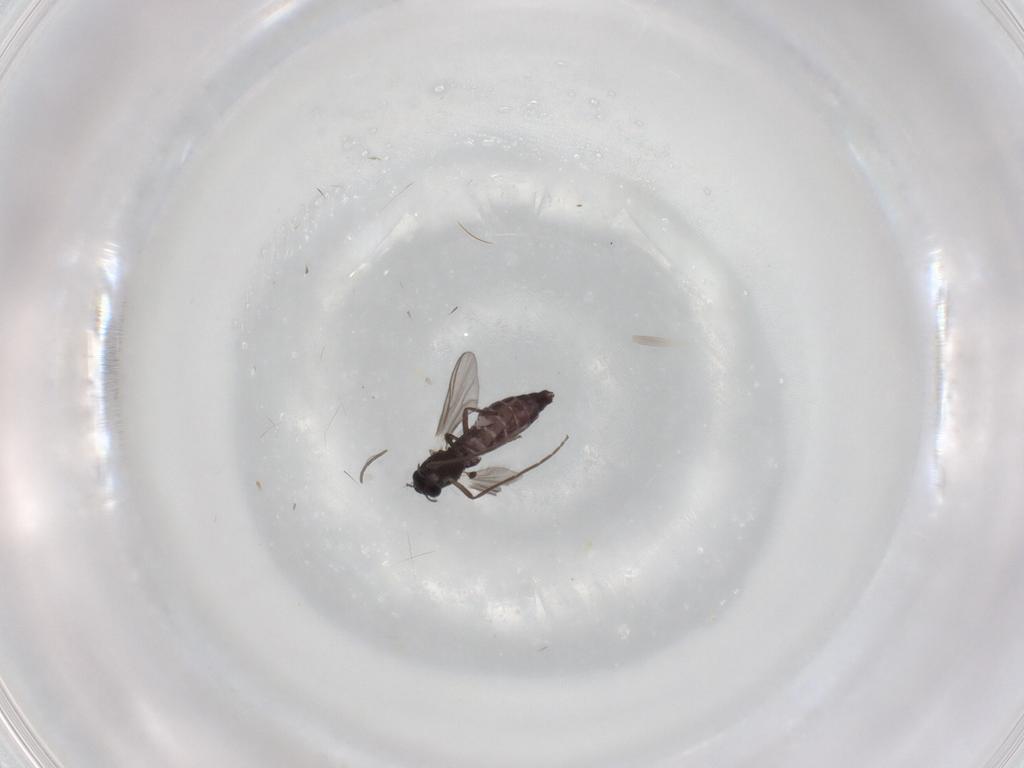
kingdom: Animalia
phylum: Arthropoda
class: Insecta
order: Diptera
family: Chironomidae
